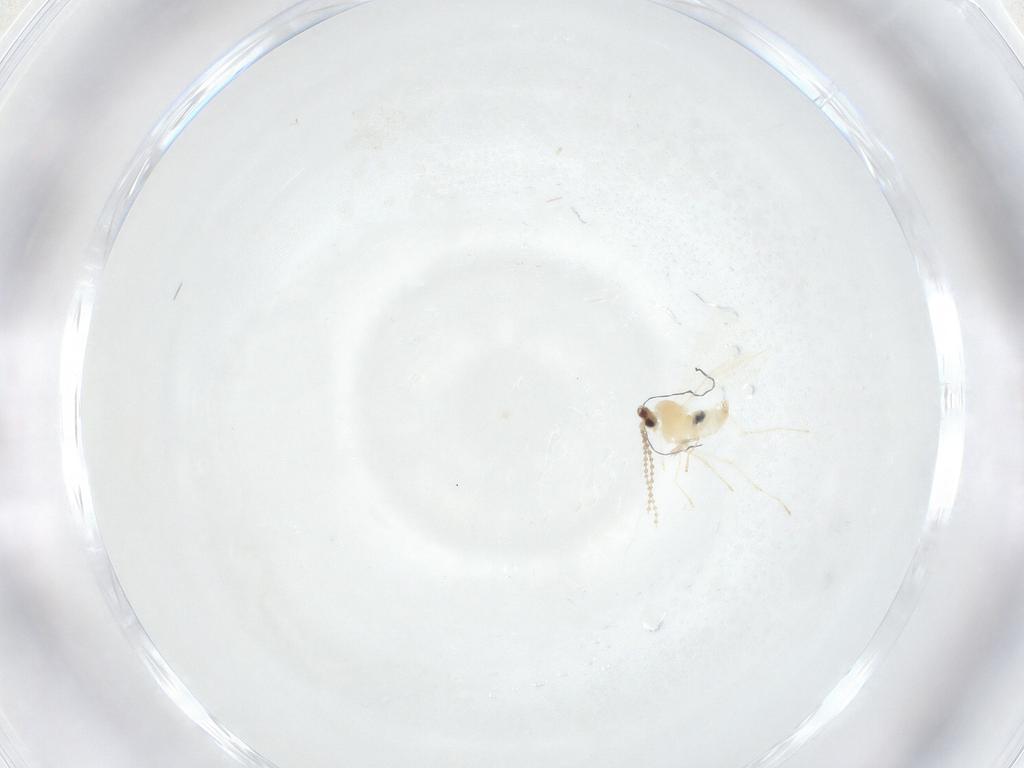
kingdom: Animalia
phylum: Arthropoda
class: Insecta
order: Diptera
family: Cecidomyiidae
